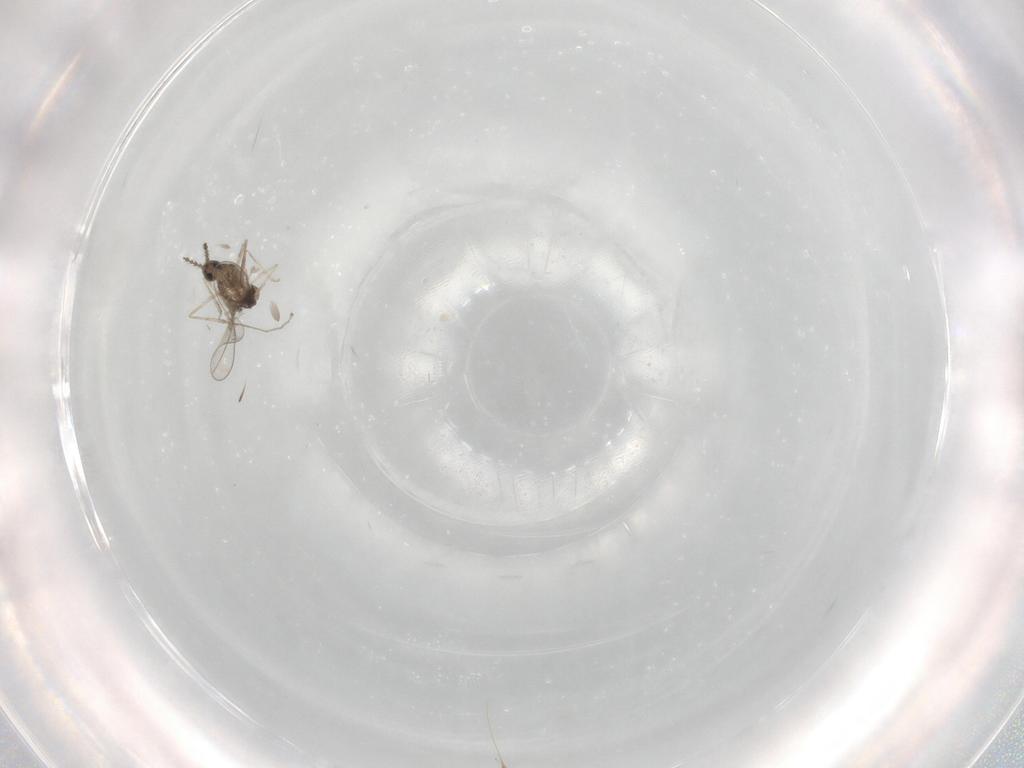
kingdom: Animalia
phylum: Arthropoda
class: Insecta
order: Diptera
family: Cecidomyiidae
